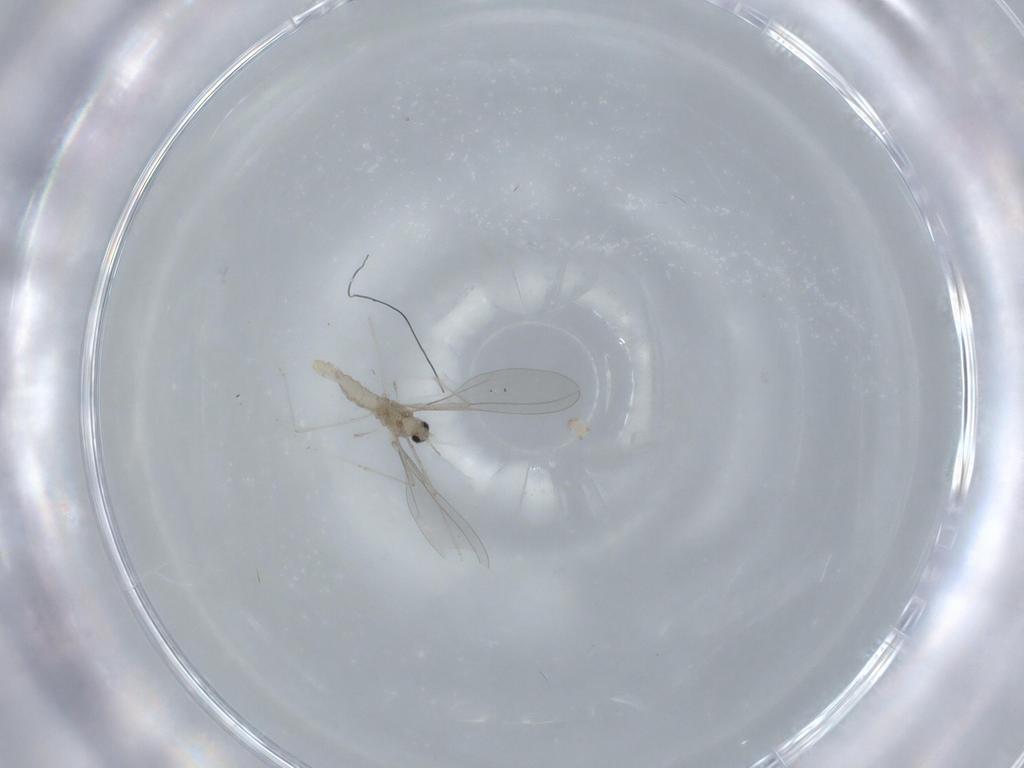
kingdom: Animalia
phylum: Arthropoda
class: Insecta
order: Diptera
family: Cecidomyiidae
